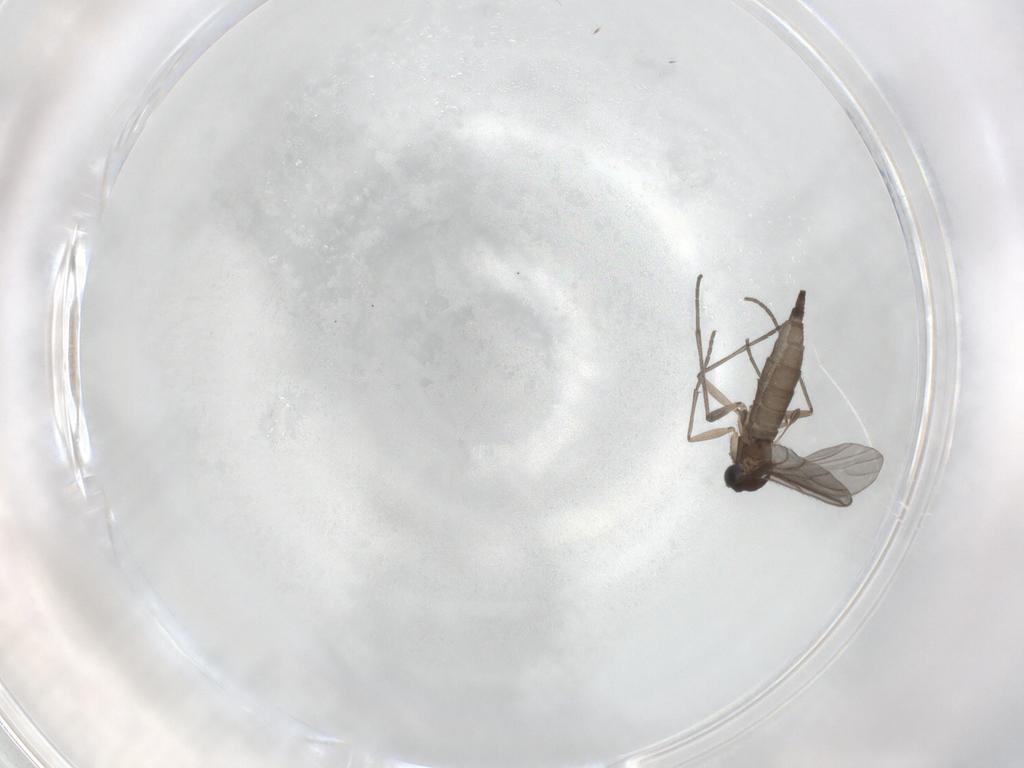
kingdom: Animalia
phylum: Arthropoda
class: Insecta
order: Diptera
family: Sciaridae
